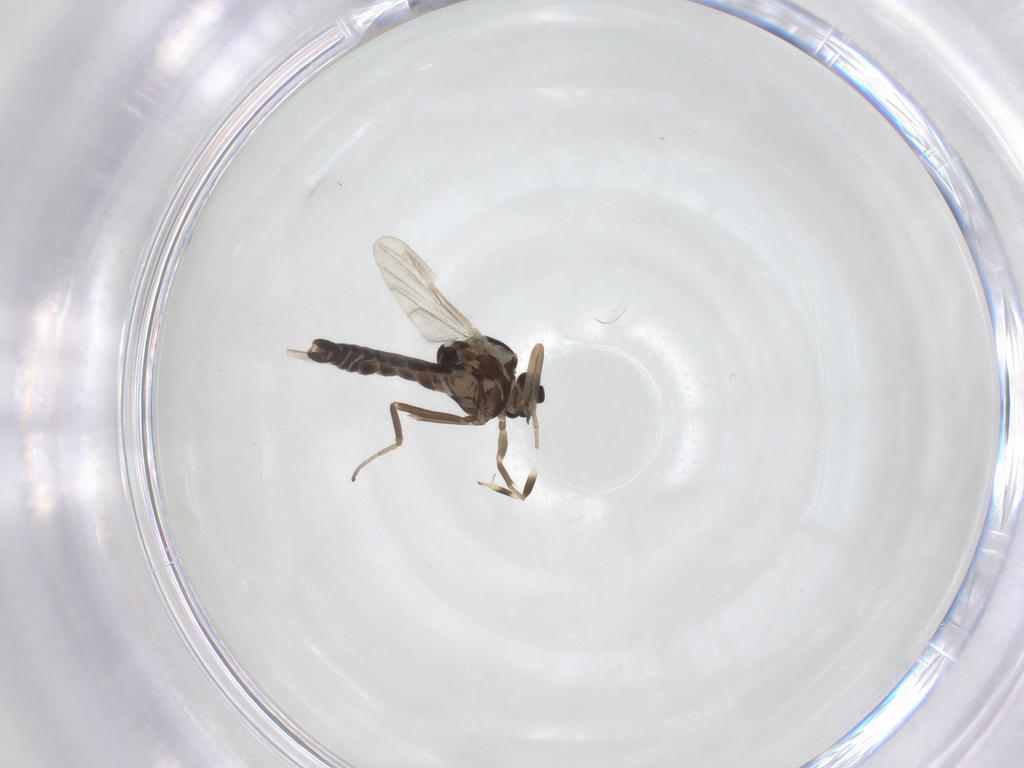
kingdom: Animalia
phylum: Arthropoda
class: Insecta
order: Diptera
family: Ceratopogonidae
